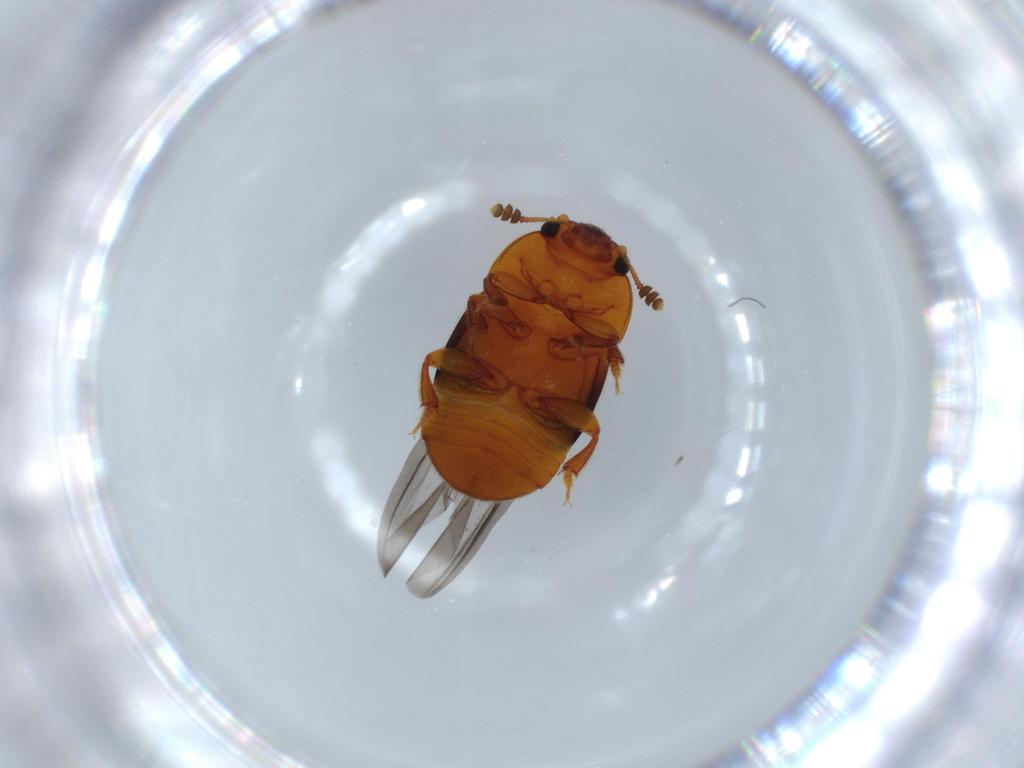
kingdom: Animalia
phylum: Arthropoda
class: Insecta
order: Coleoptera
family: Nitidulidae
